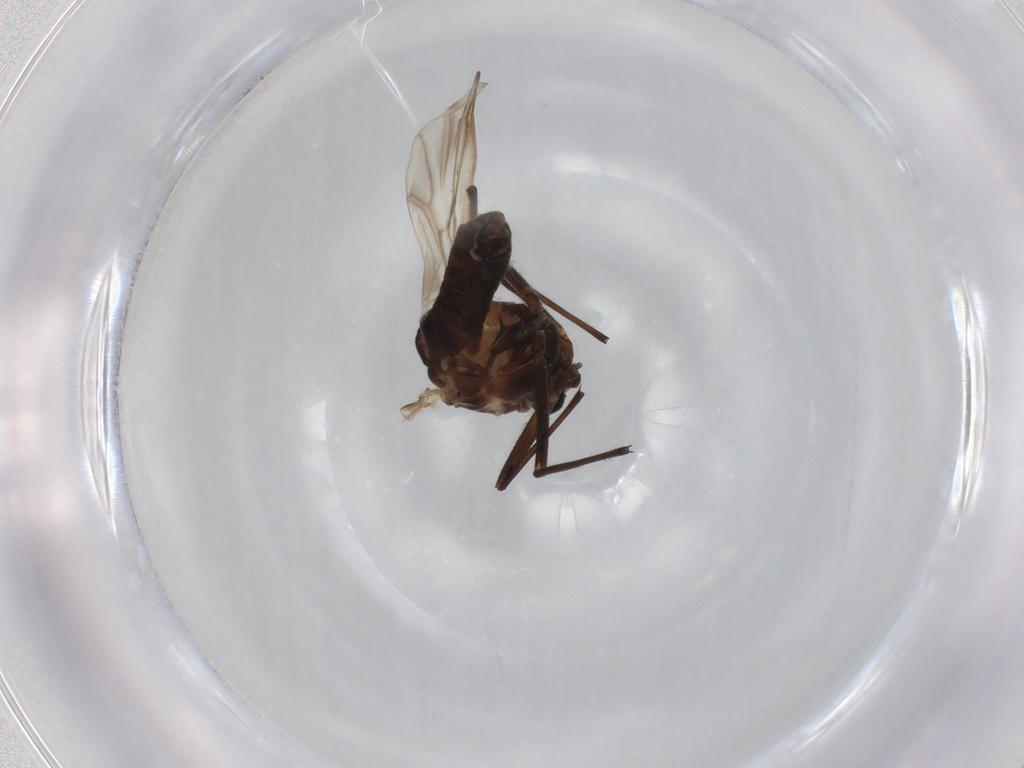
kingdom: Animalia
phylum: Arthropoda
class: Insecta
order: Diptera
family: Chironomidae
